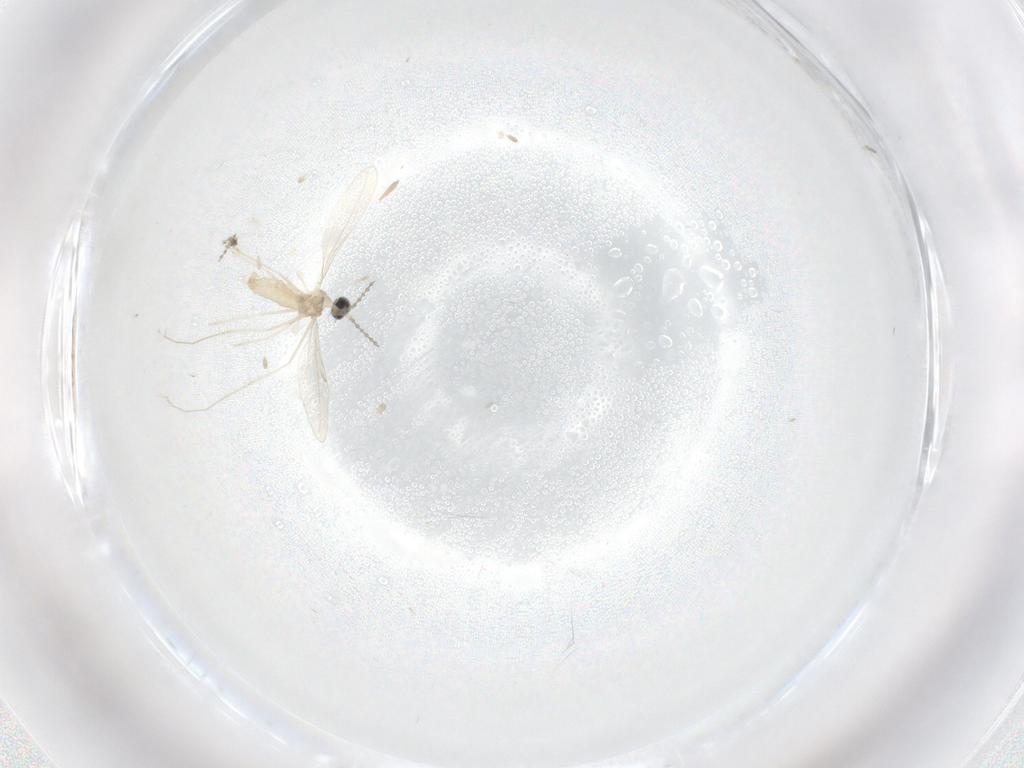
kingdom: Animalia
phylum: Arthropoda
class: Insecta
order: Diptera
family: Cecidomyiidae
